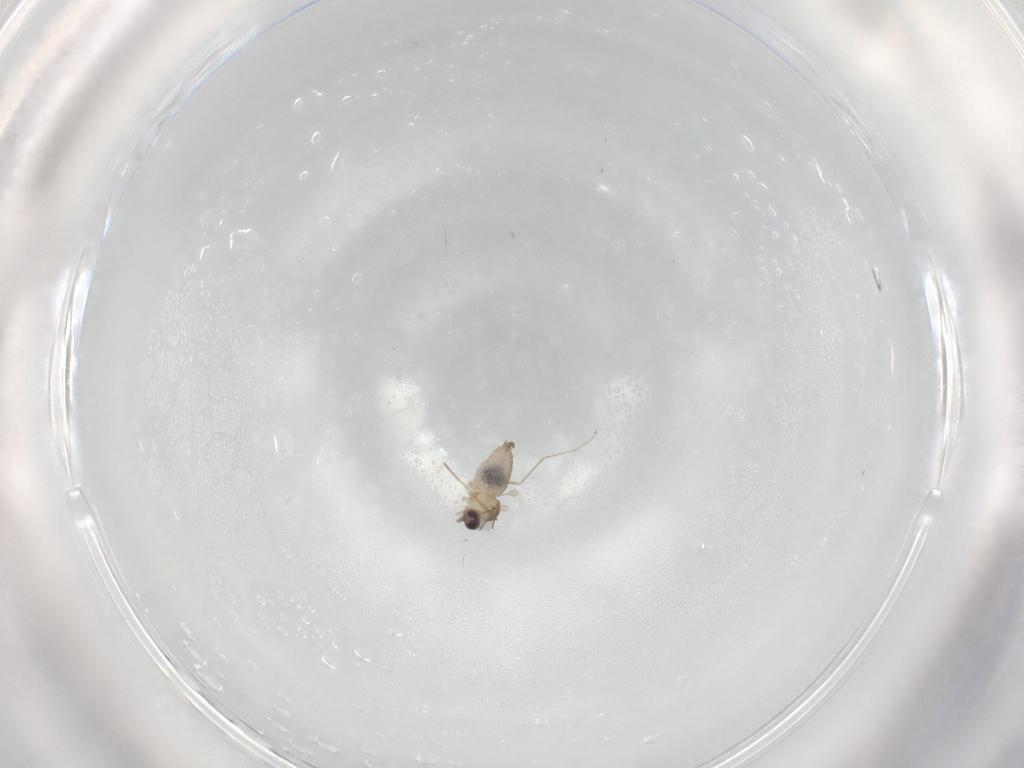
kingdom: Animalia
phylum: Arthropoda
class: Insecta
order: Diptera
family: Cecidomyiidae
